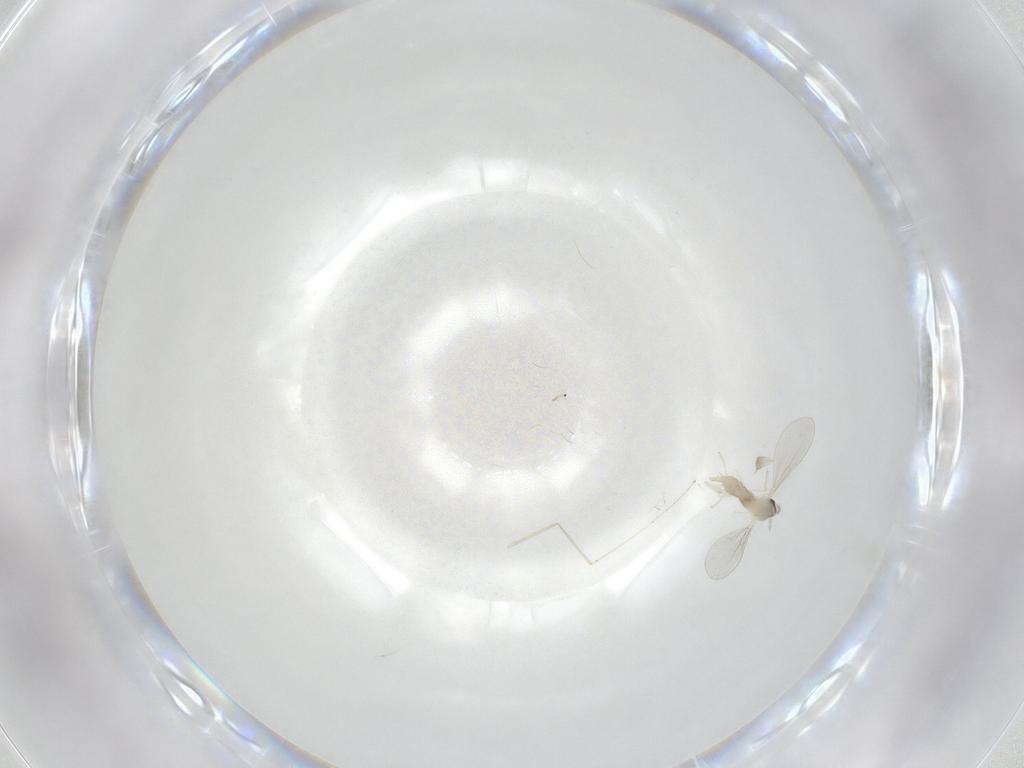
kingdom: Animalia
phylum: Arthropoda
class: Insecta
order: Diptera
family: Cecidomyiidae
